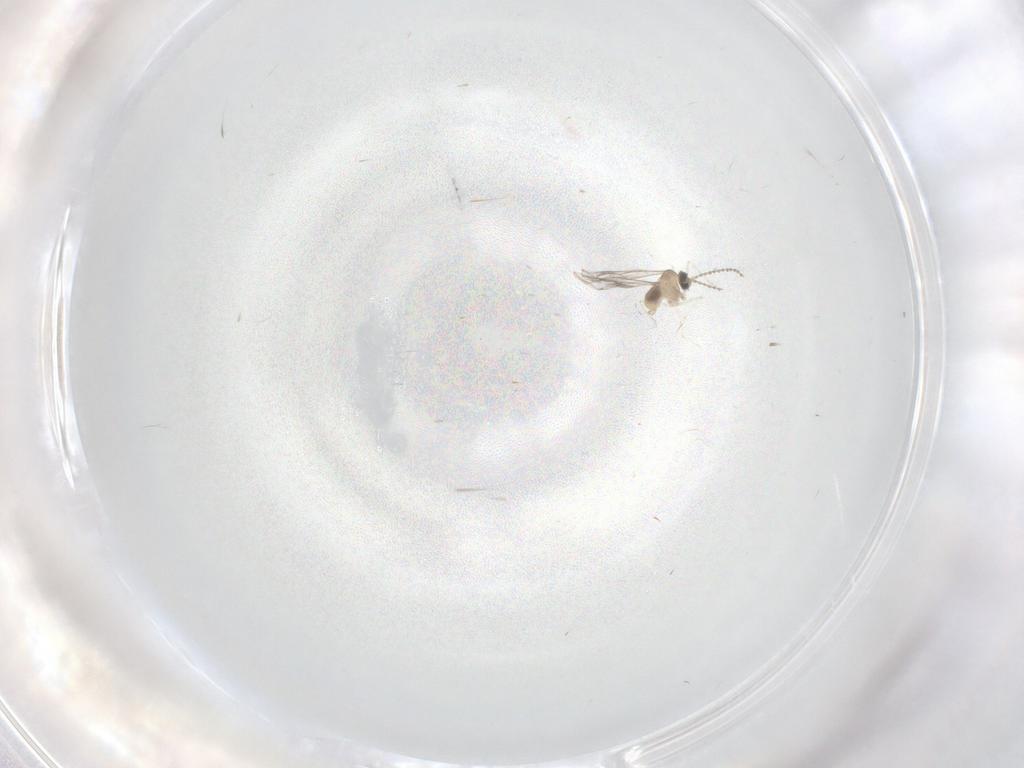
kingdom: Animalia
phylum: Arthropoda
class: Insecta
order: Diptera
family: Cecidomyiidae
